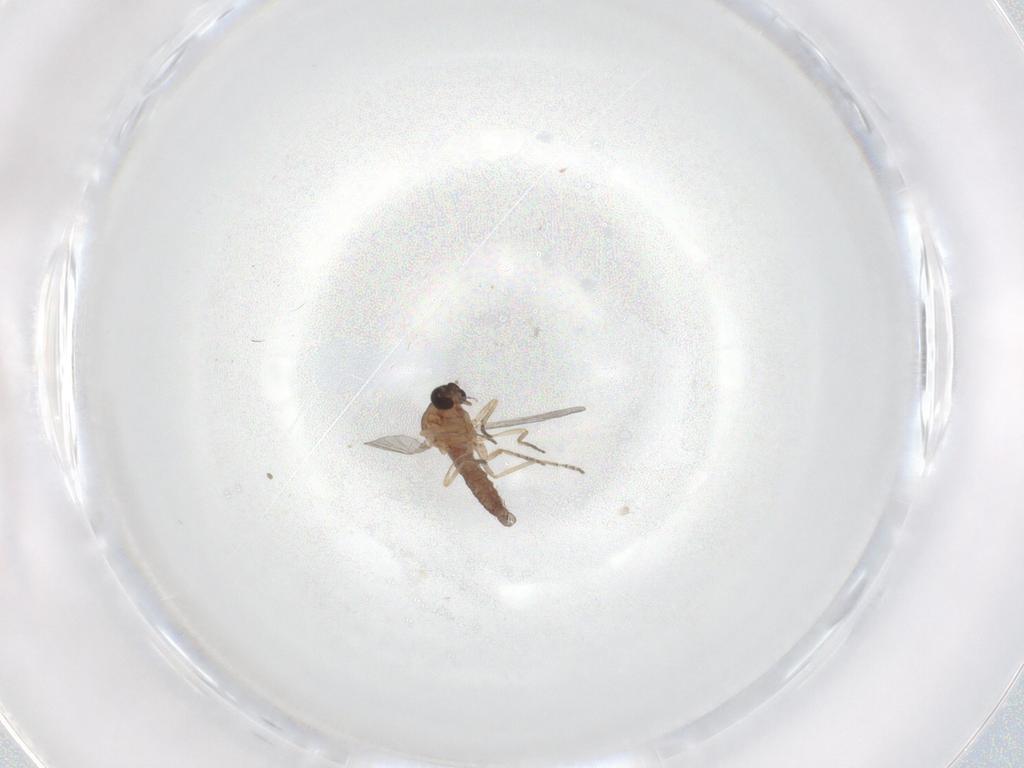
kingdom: Animalia
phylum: Arthropoda
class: Insecta
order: Diptera
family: Ceratopogonidae
